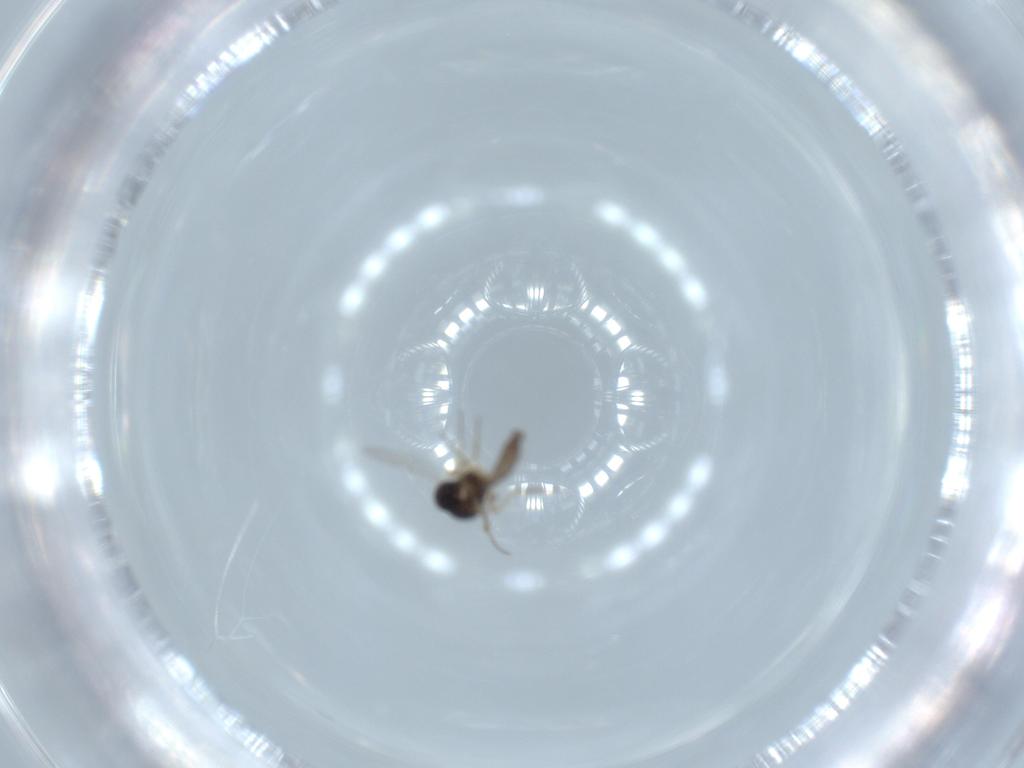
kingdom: Animalia
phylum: Arthropoda
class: Insecta
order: Diptera
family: Ceratopogonidae
